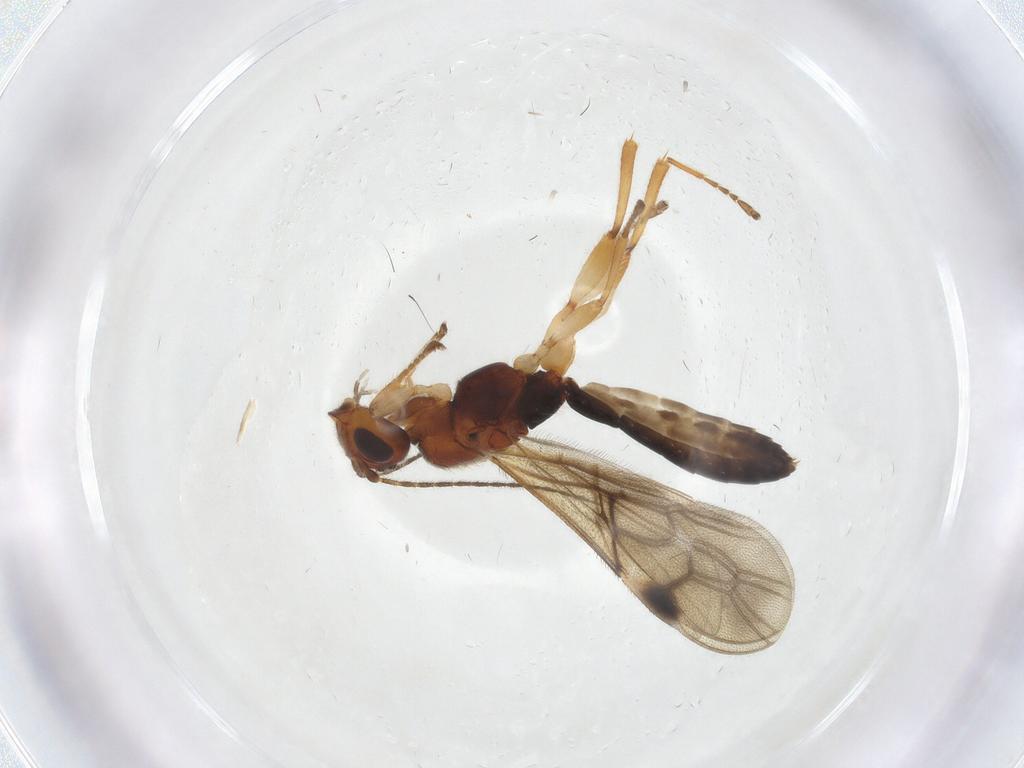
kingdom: Animalia
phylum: Arthropoda
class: Insecta
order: Hymenoptera
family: Braconidae
